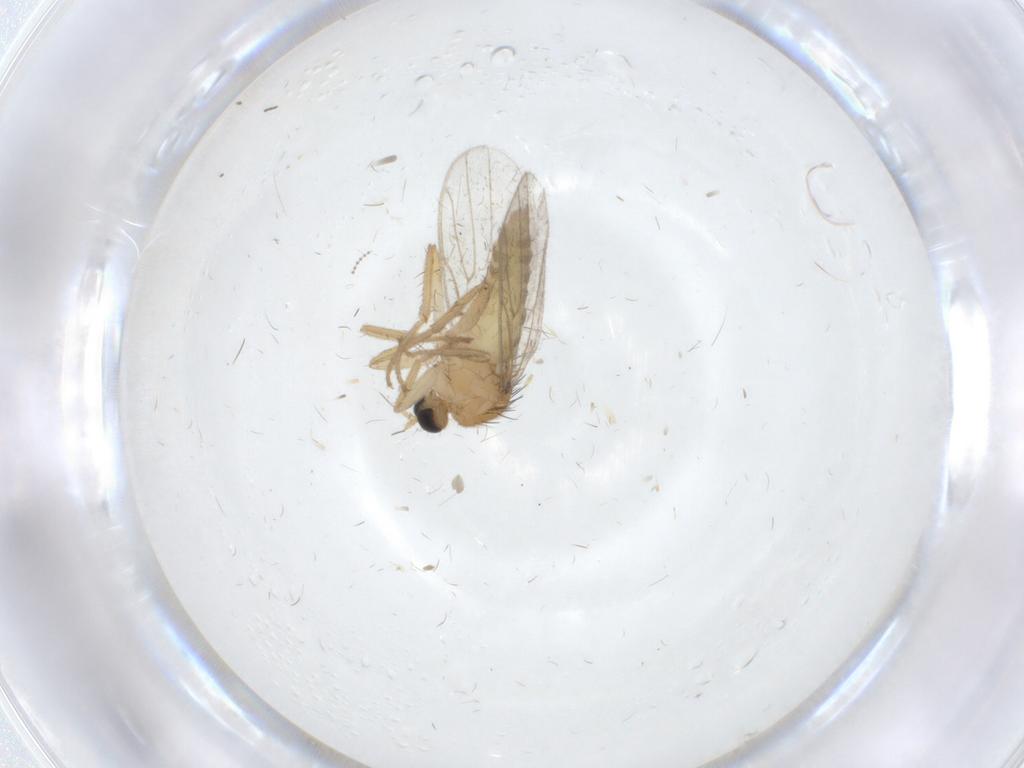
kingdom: Animalia
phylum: Arthropoda
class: Insecta
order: Diptera
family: Hybotidae
